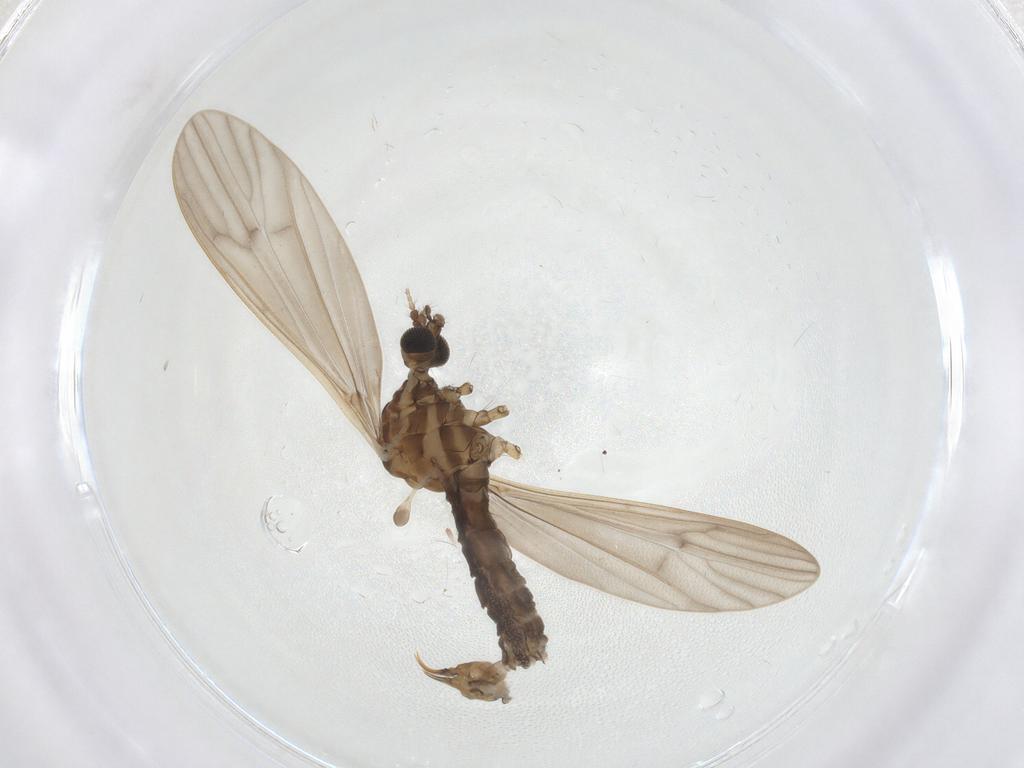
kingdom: Animalia
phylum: Arthropoda
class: Insecta
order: Diptera
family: Limoniidae
